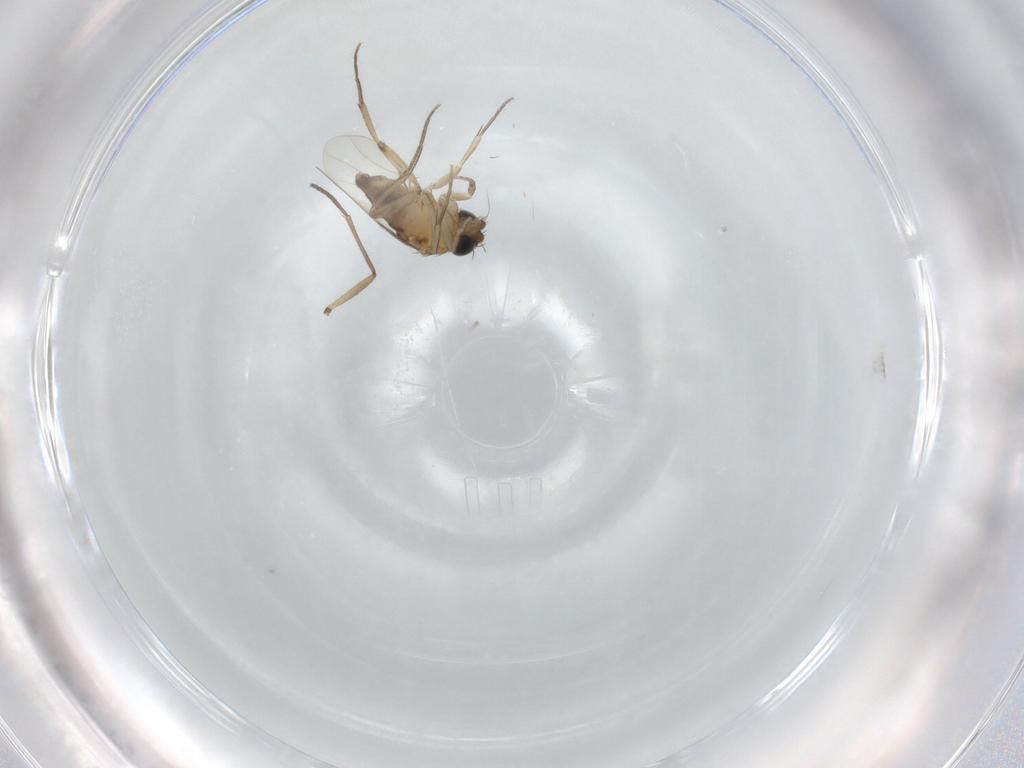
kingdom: Animalia
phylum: Arthropoda
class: Insecta
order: Diptera
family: Phoridae
